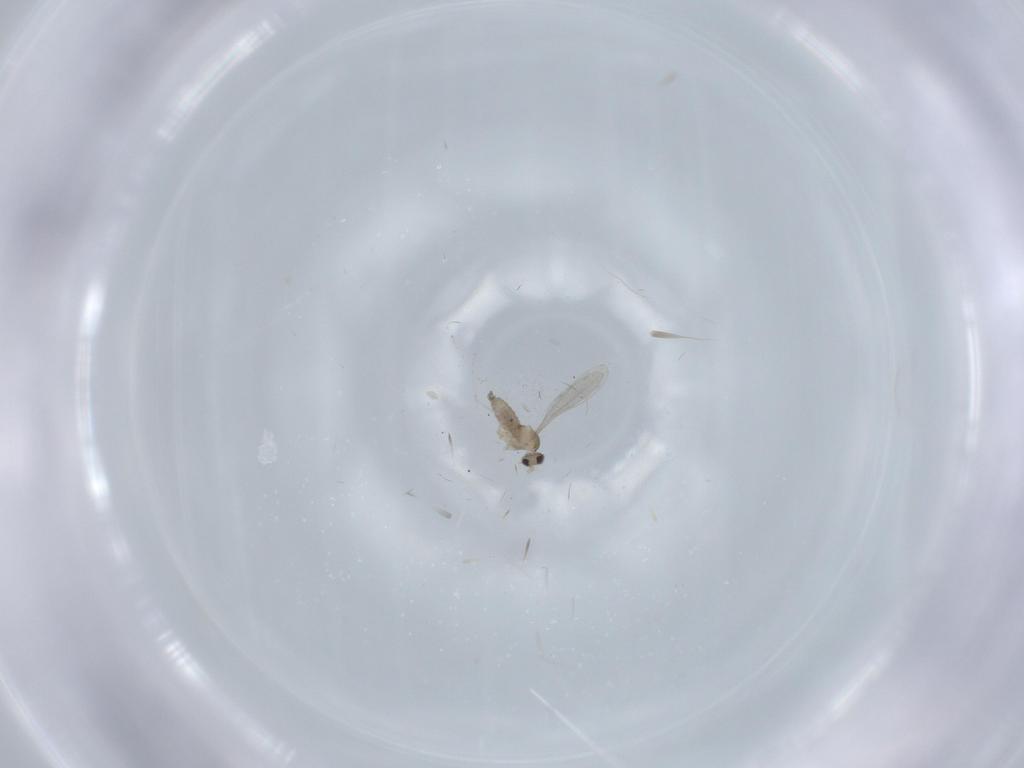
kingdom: Animalia
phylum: Arthropoda
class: Insecta
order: Diptera
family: Cecidomyiidae
